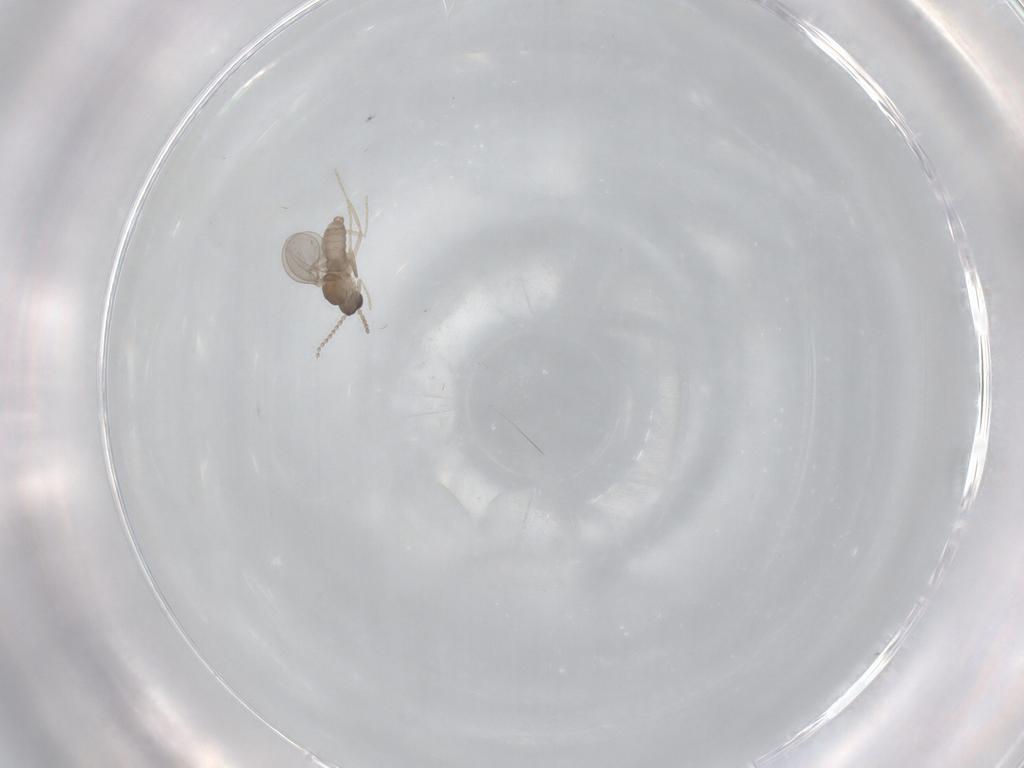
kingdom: Animalia
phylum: Arthropoda
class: Insecta
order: Diptera
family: Cecidomyiidae
